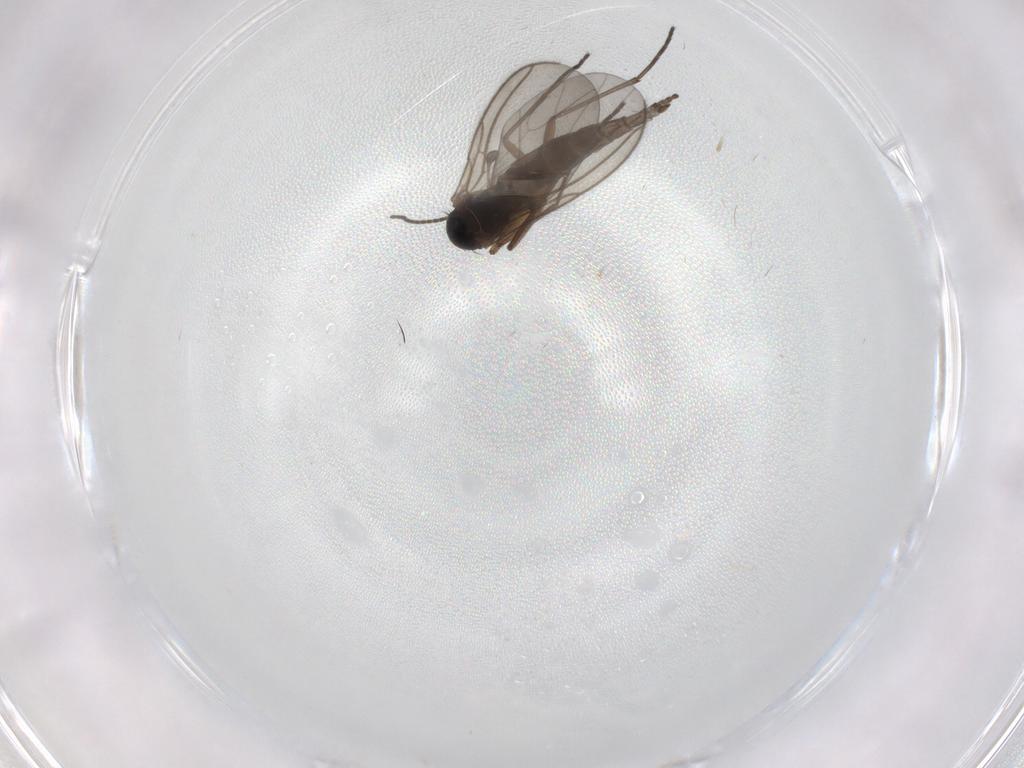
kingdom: Animalia
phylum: Arthropoda
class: Insecta
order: Diptera
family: Sciaridae
